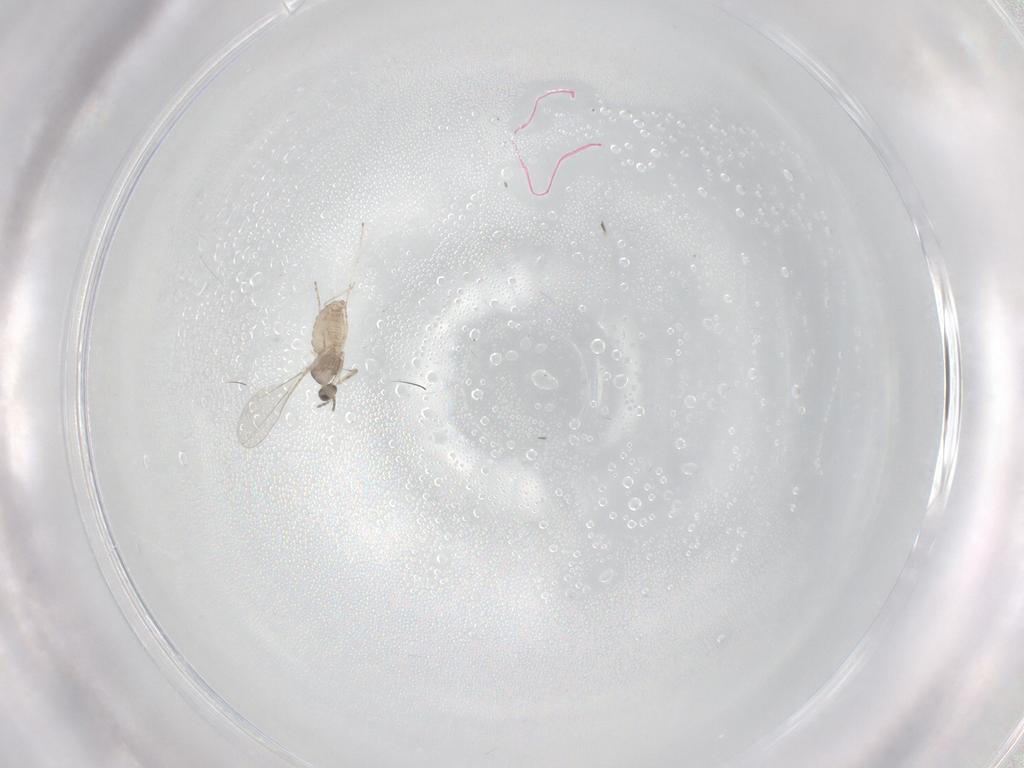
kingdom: Animalia
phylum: Arthropoda
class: Insecta
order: Diptera
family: Cecidomyiidae
